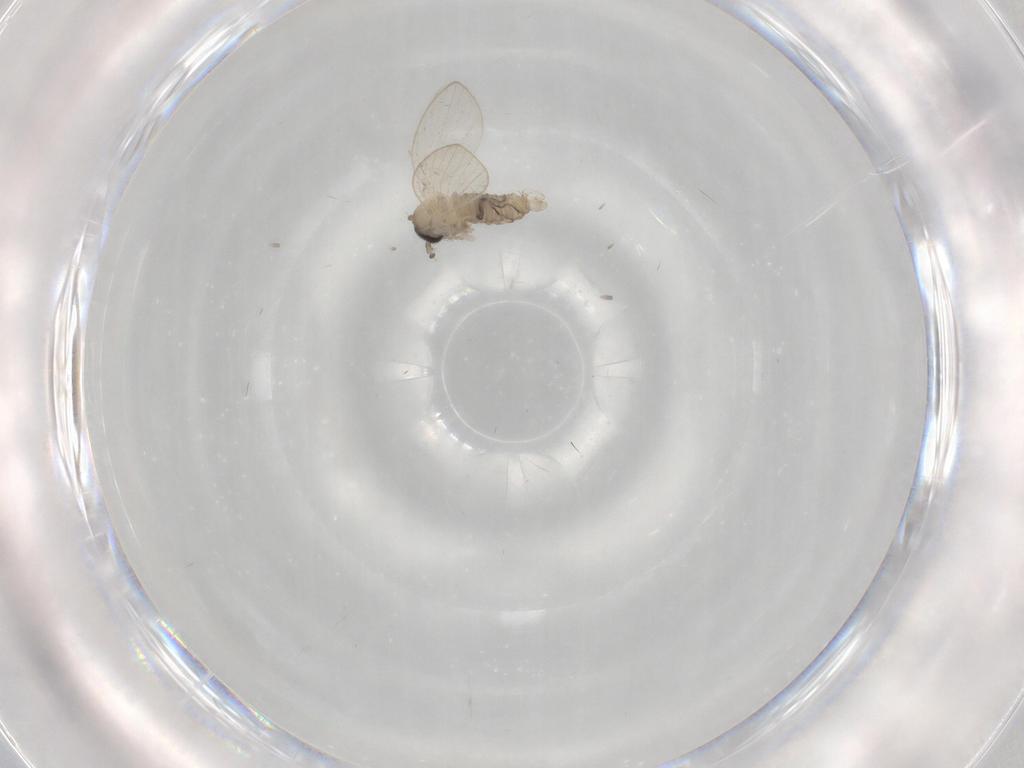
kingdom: Animalia
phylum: Arthropoda
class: Insecta
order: Diptera
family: Psychodidae
